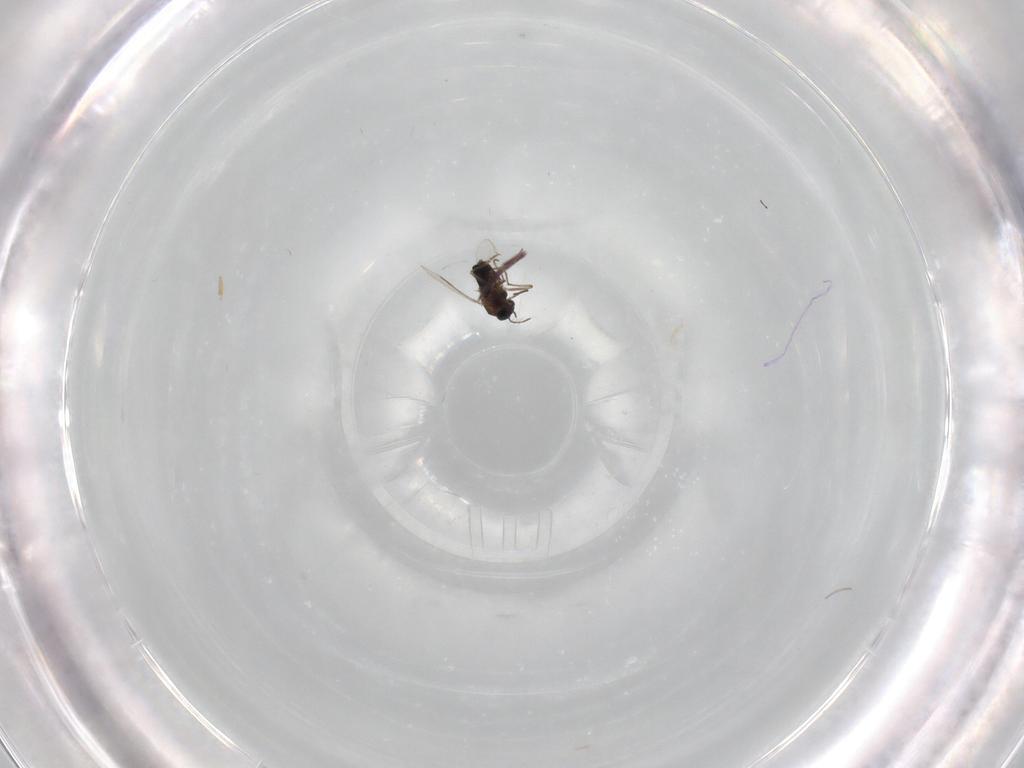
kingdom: Animalia
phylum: Arthropoda
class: Insecta
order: Diptera
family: Chironomidae
